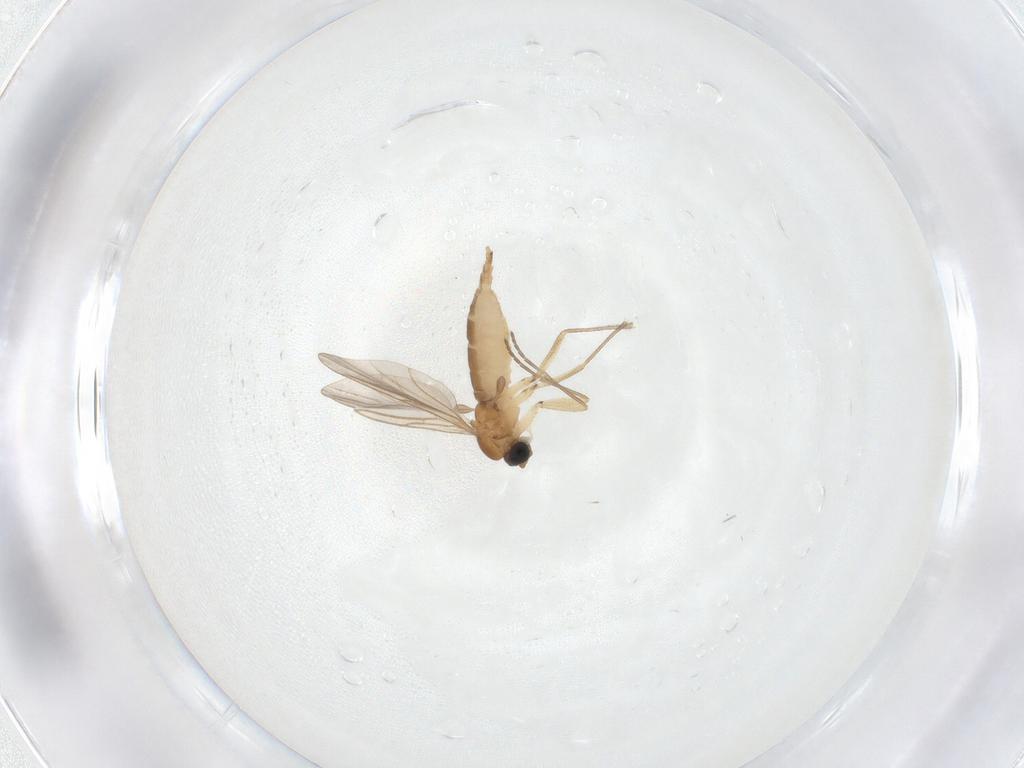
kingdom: Animalia
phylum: Arthropoda
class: Insecta
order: Diptera
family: Sciaridae
